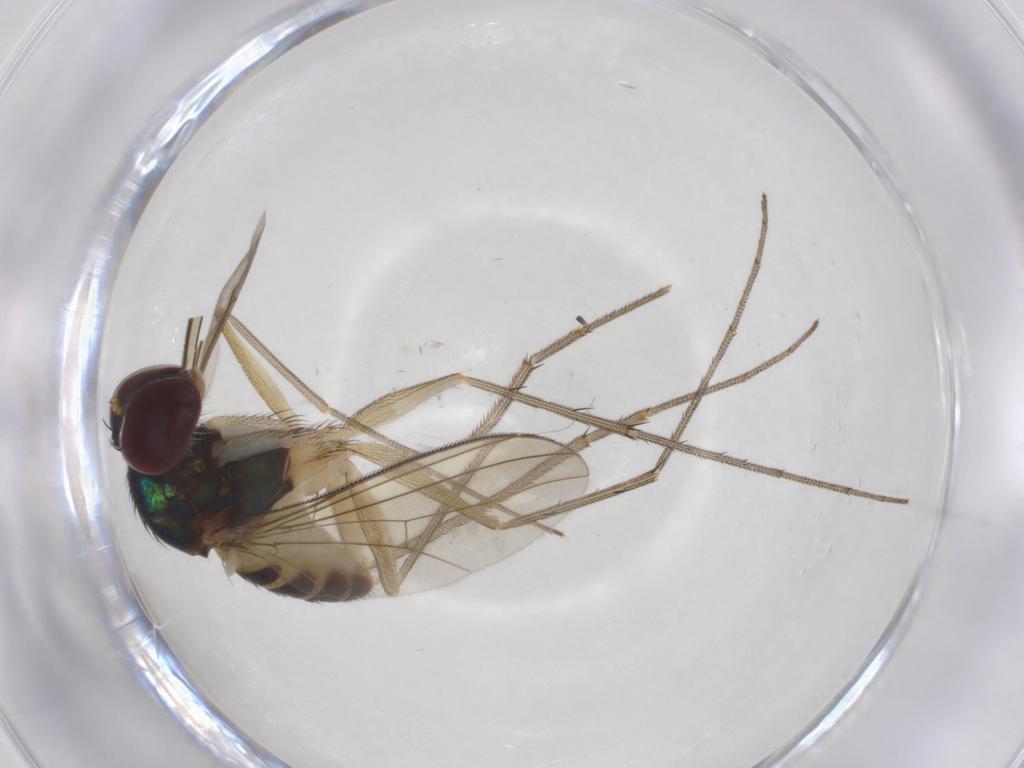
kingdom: Animalia
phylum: Arthropoda
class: Insecta
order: Diptera
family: Dolichopodidae
